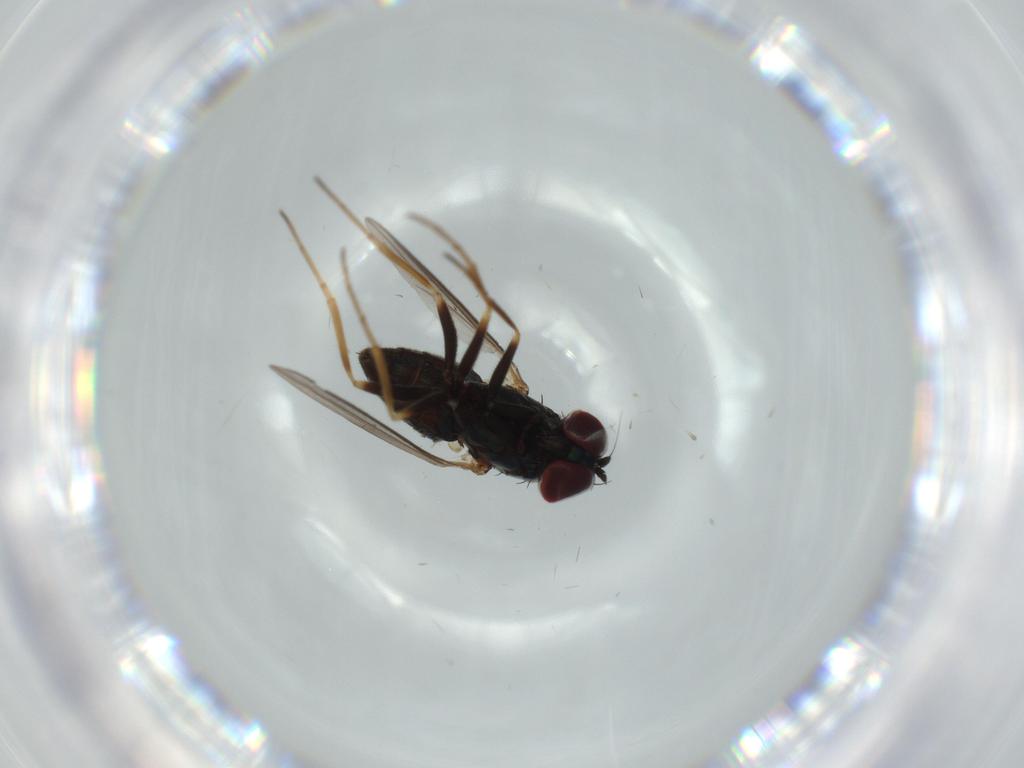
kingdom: Animalia
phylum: Arthropoda
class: Insecta
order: Diptera
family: Dolichopodidae
